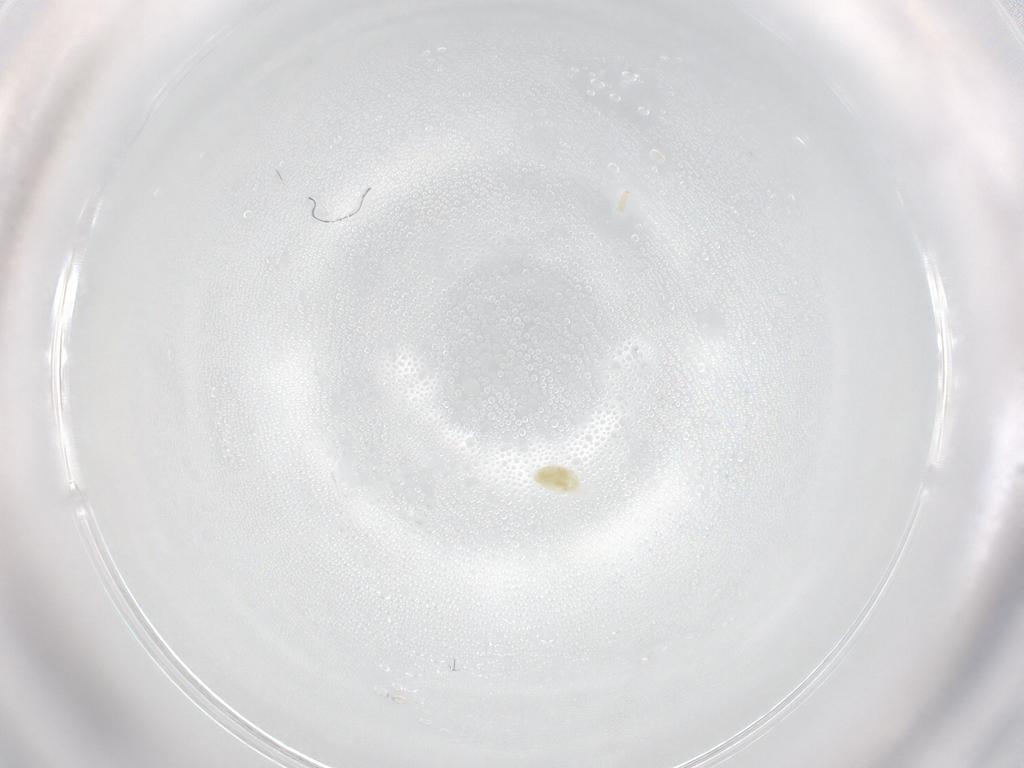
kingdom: Animalia
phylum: Arthropoda
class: Arachnida
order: Trombidiformes
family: Eupodidae
